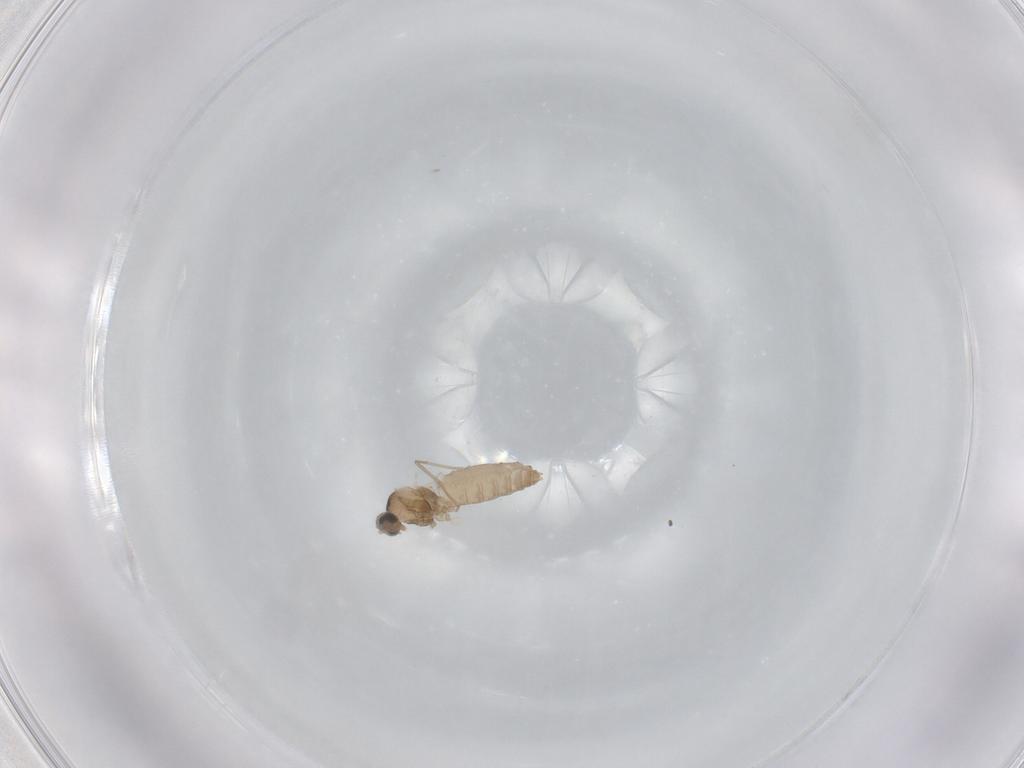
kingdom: Animalia
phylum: Arthropoda
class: Insecta
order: Diptera
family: Cecidomyiidae
